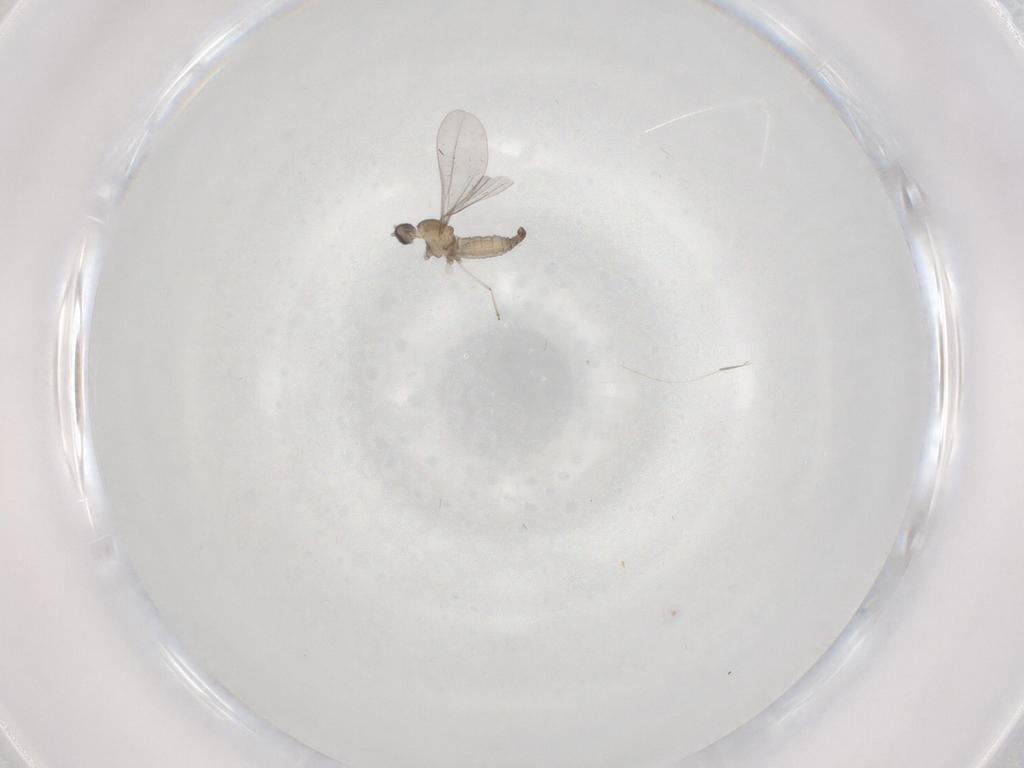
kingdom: Animalia
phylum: Arthropoda
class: Insecta
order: Diptera
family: Cecidomyiidae
